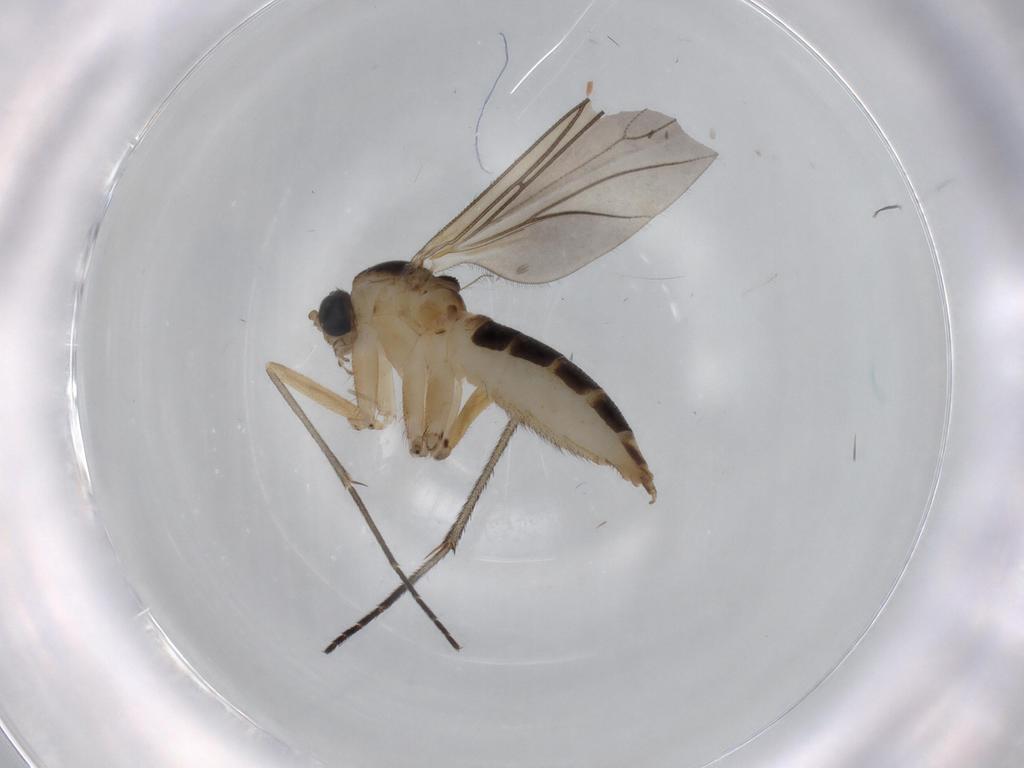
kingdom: Animalia
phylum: Arthropoda
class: Insecta
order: Diptera
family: Sciaridae
